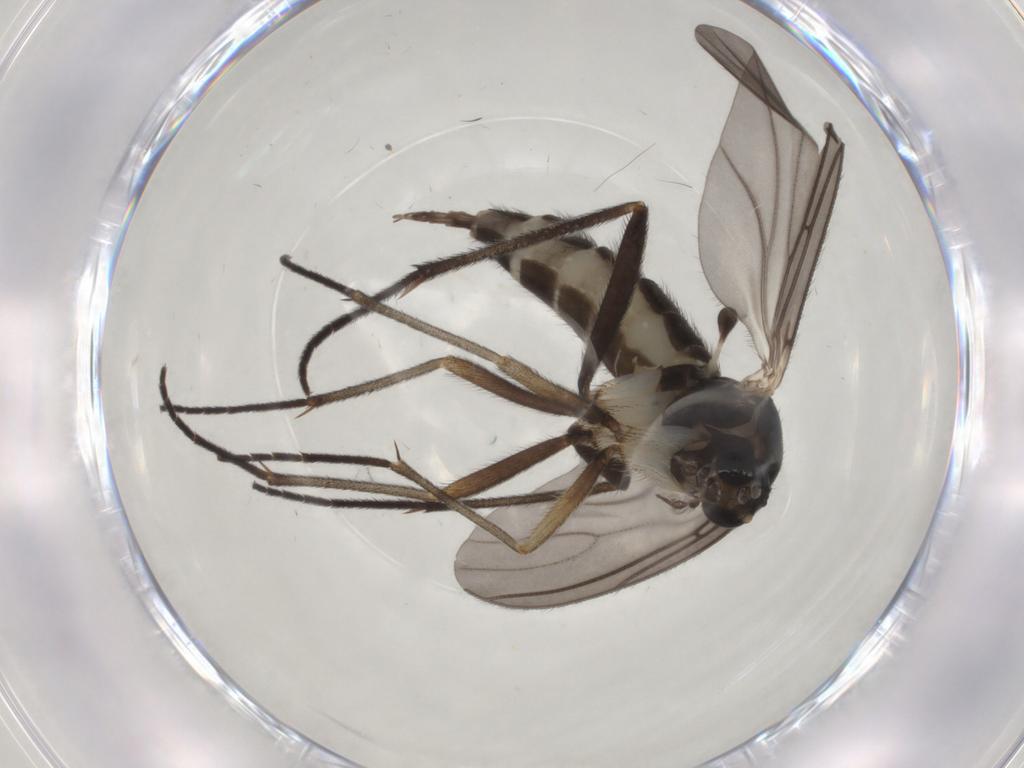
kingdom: Animalia
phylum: Arthropoda
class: Insecta
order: Diptera
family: Sciaridae
